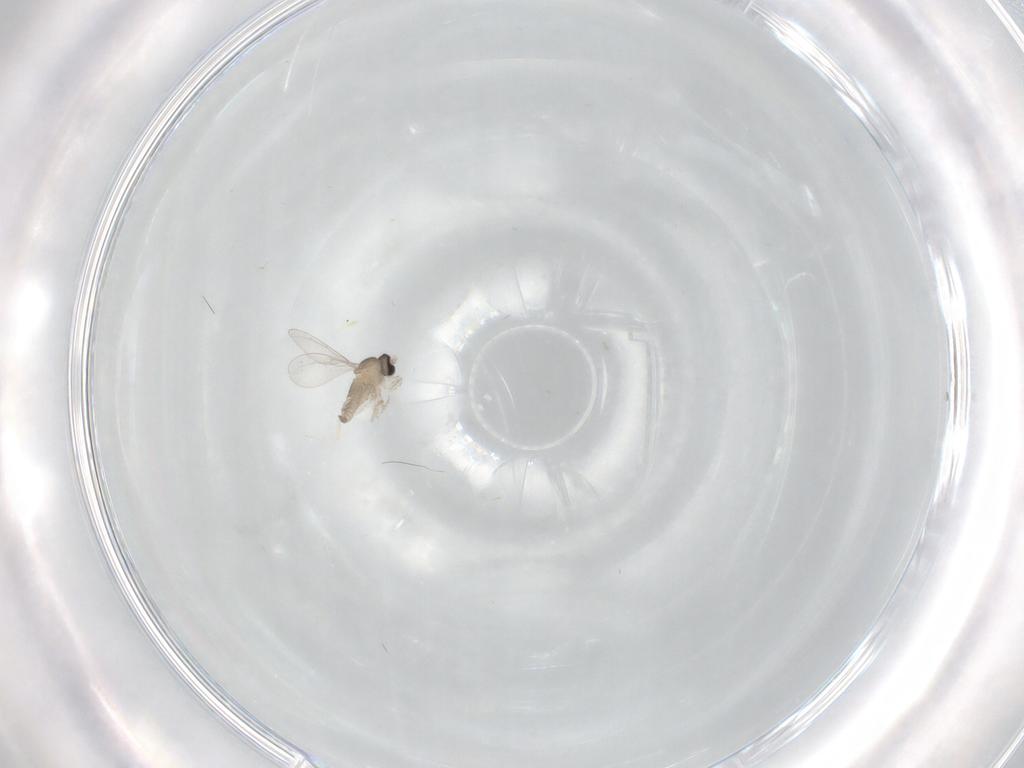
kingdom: Animalia
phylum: Arthropoda
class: Insecta
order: Diptera
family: Cecidomyiidae
